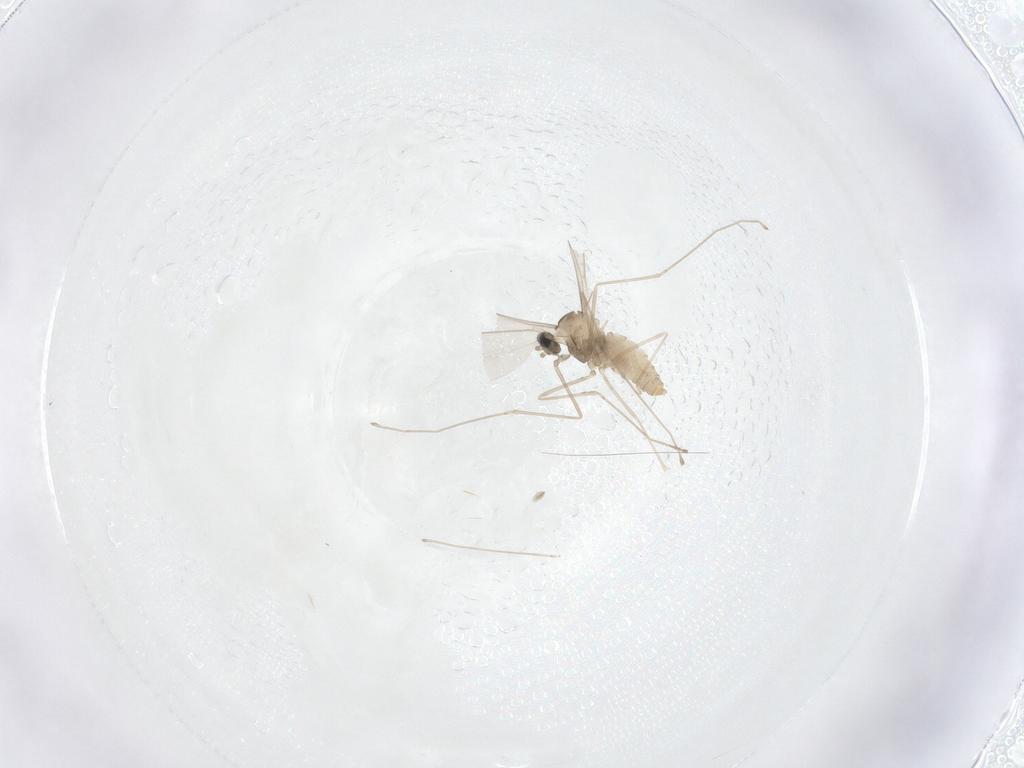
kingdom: Animalia
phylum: Arthropoda
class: Insecta
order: Diptera
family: Cecidomyiidae
